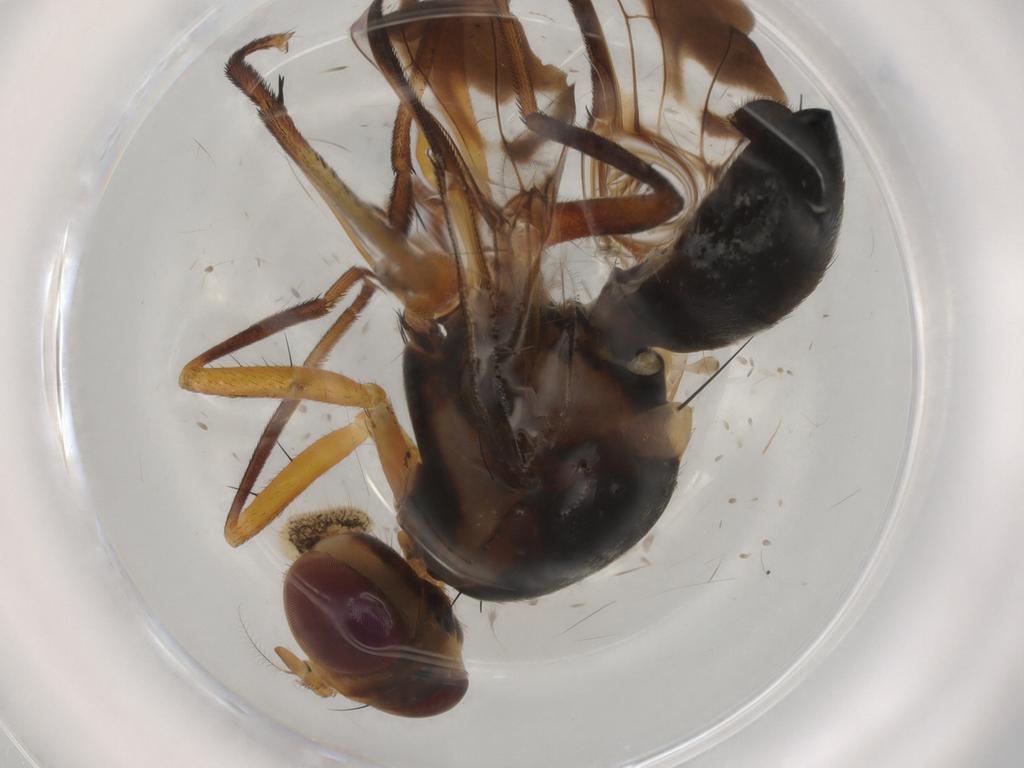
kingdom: Animalia
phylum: Arthropoda
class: Insecta
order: Diptera
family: Cecidomyiidae
